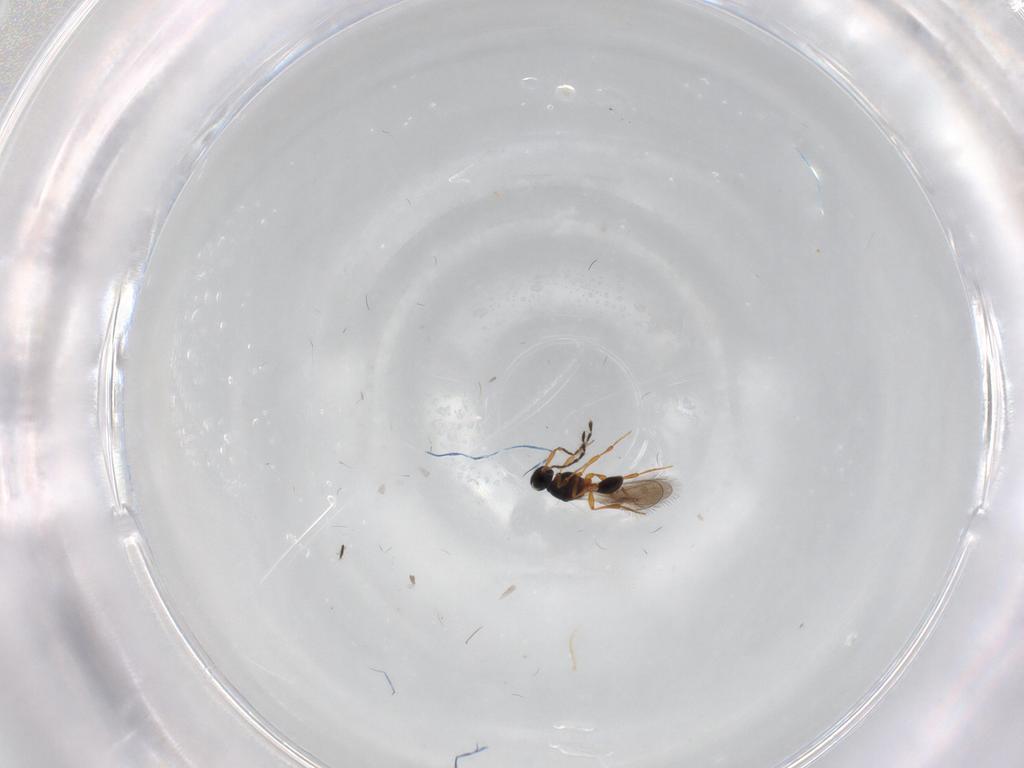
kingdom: Animalia
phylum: Arthropoda
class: Insecta
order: Hymenoptera
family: Platygastridae
